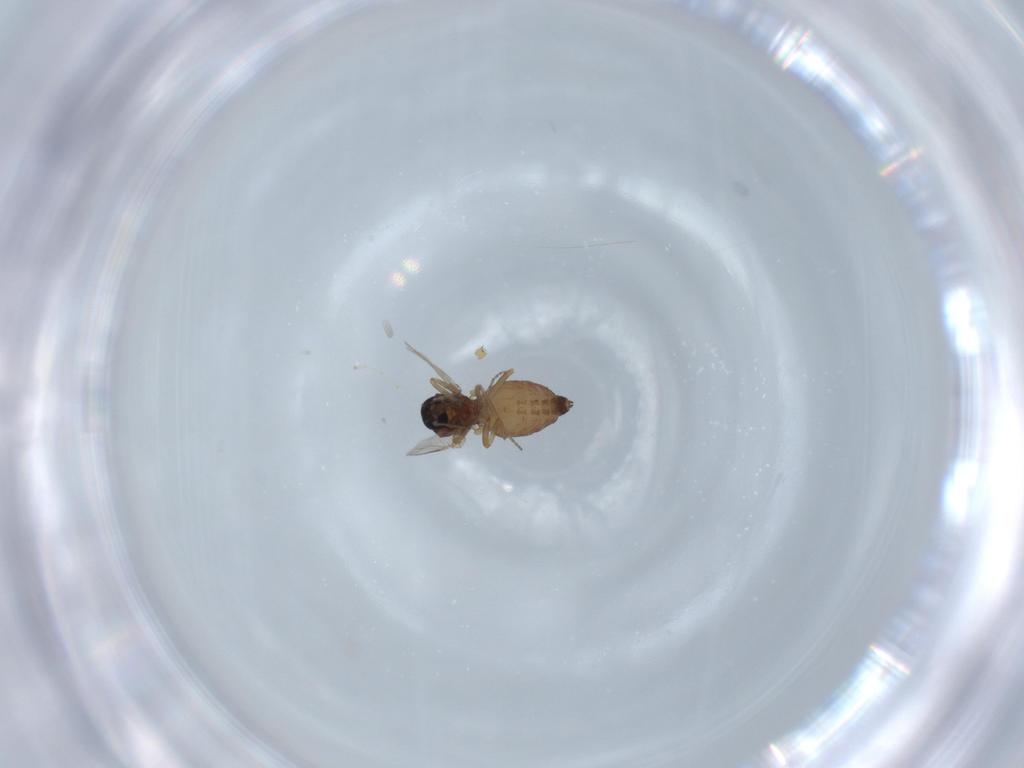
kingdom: Animalia
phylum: Arthropoda
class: Insecta
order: Diptera
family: Ceratopogonidae
